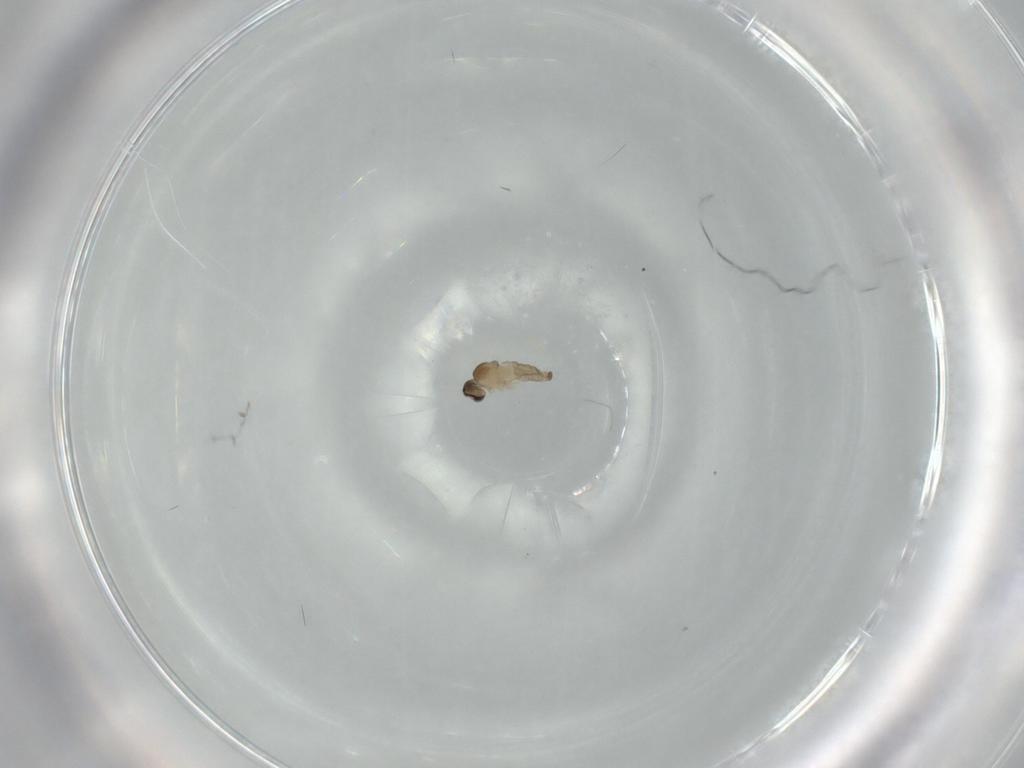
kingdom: Animalia
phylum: Arthropoda
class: Insecta
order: Diptera
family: Cecidomyiidae
